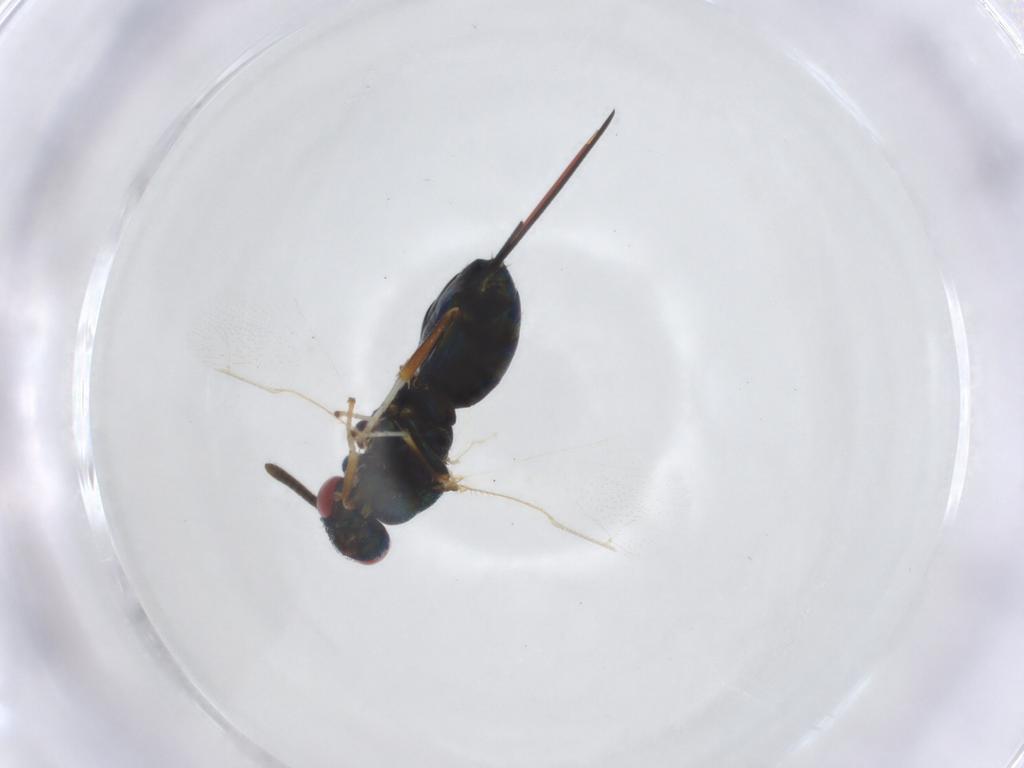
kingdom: Animalia
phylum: Arthropoda
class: Insecta
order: Hymenoptera
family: Torymidae
